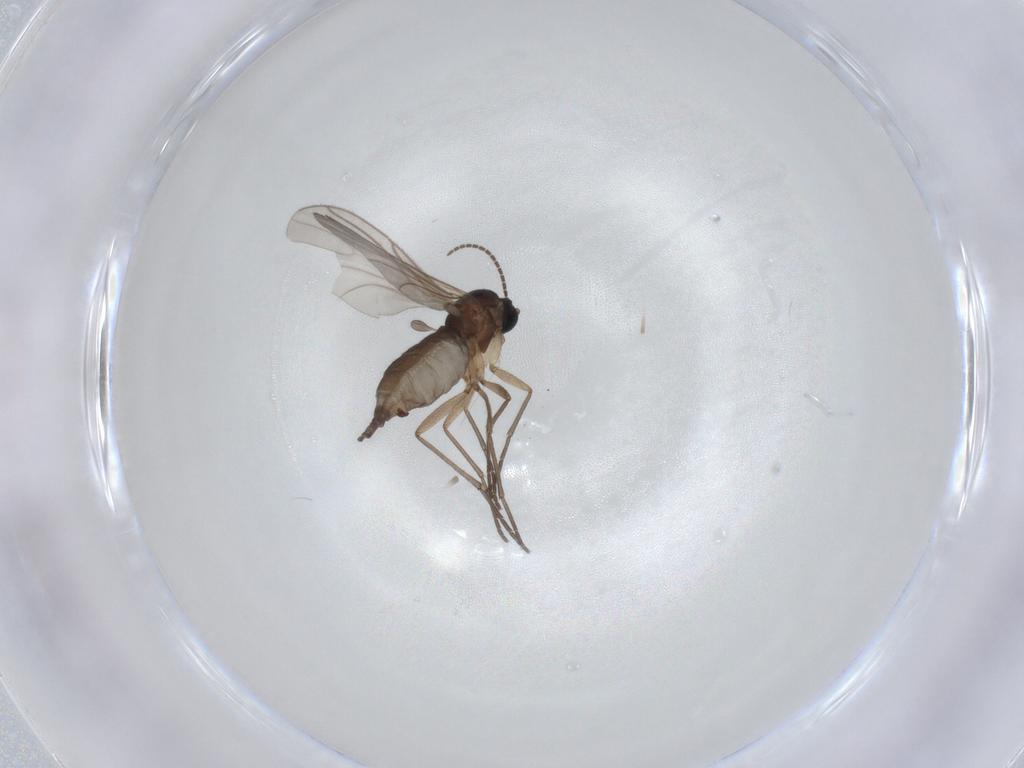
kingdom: Animalia
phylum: Arthropoda
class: Insecta
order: Diptera
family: Sciaridae
